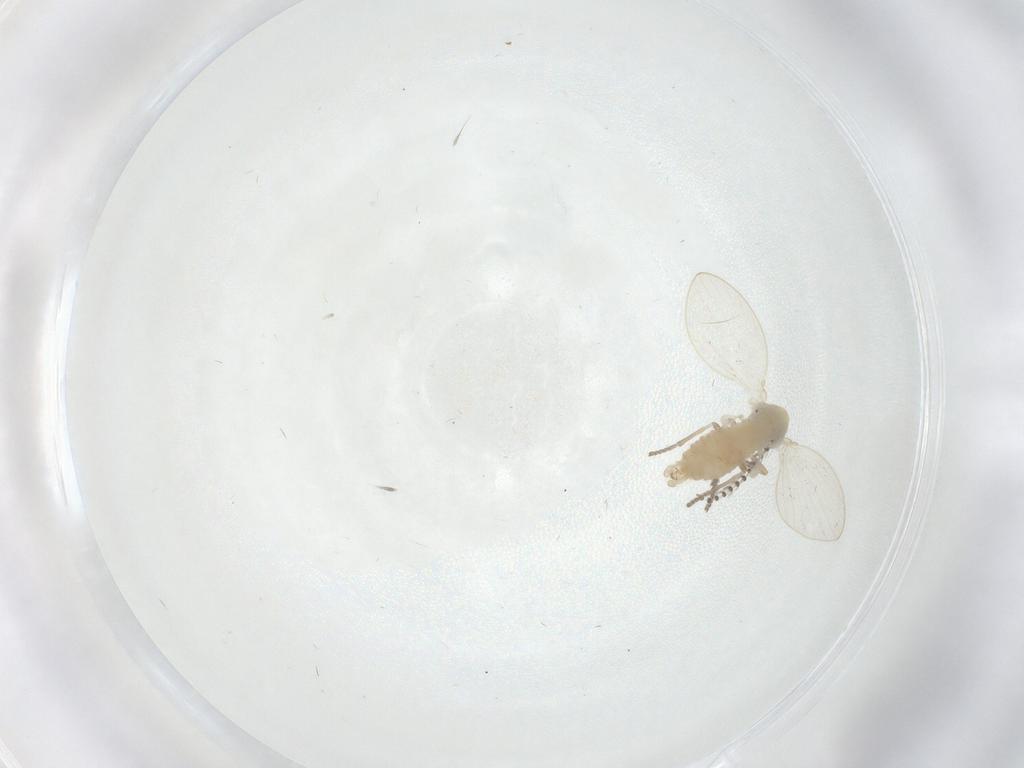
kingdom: Animalia
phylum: Arthropoda
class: Insecta
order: Diptera
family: Psychodidae
